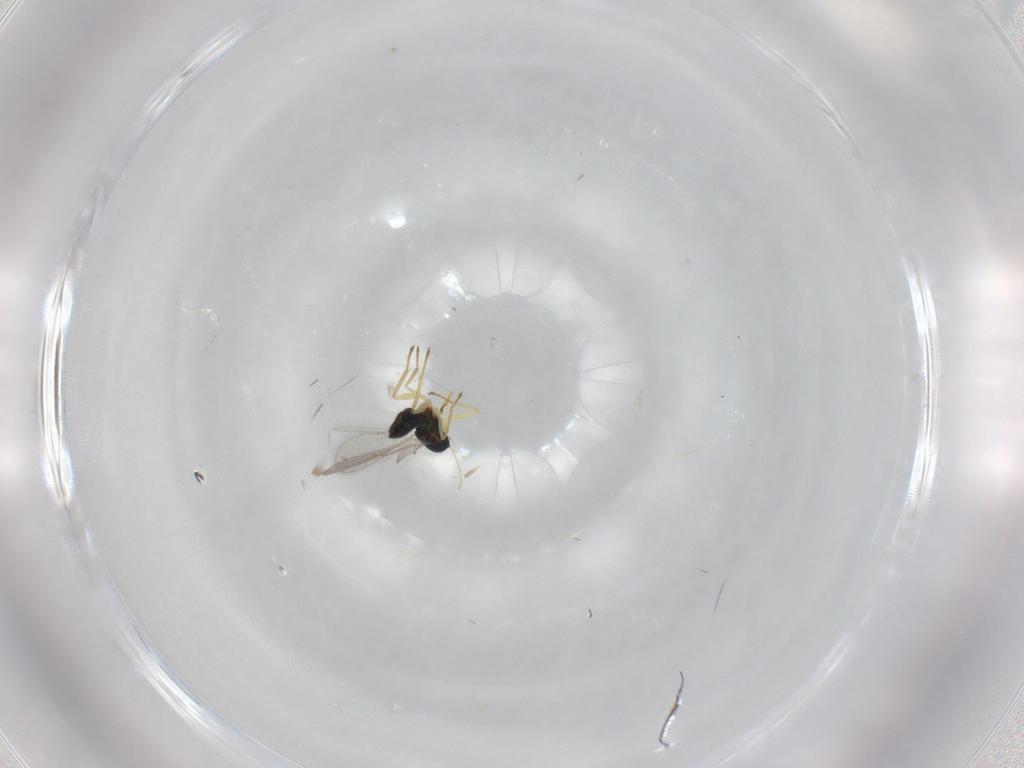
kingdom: Animalia
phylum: Arthropoda
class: Insecta
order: Hymenoptera
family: Eulophidae
